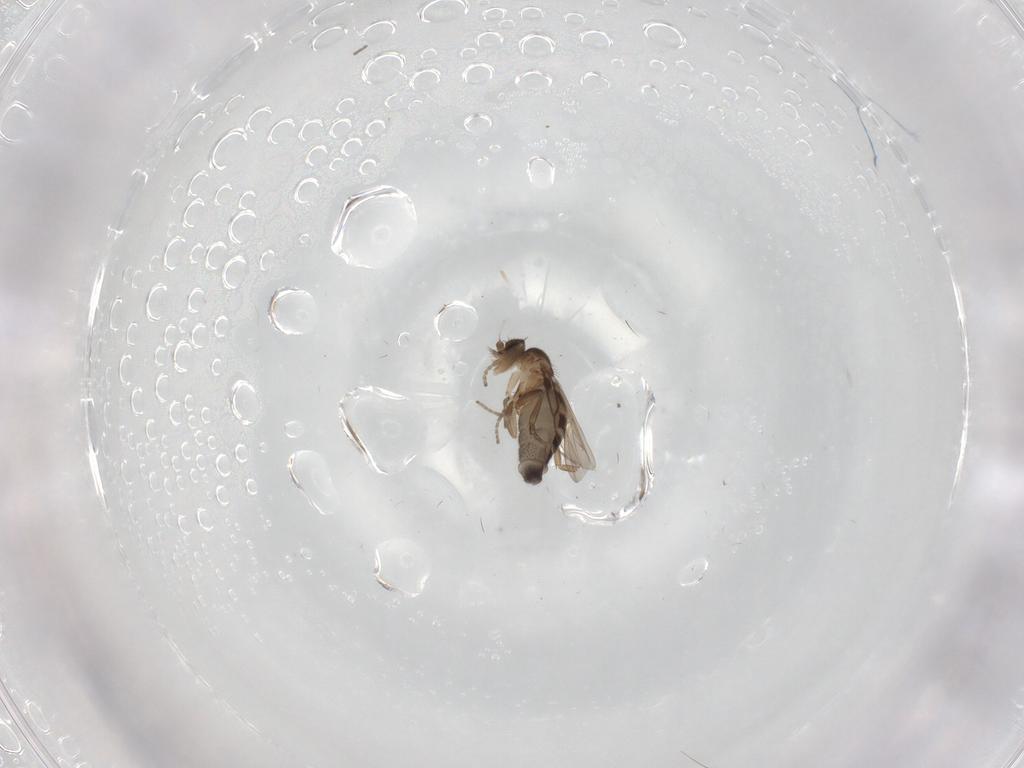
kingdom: Animalia
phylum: Arthropoda
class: Insecta
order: Diptera
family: Phoridae
